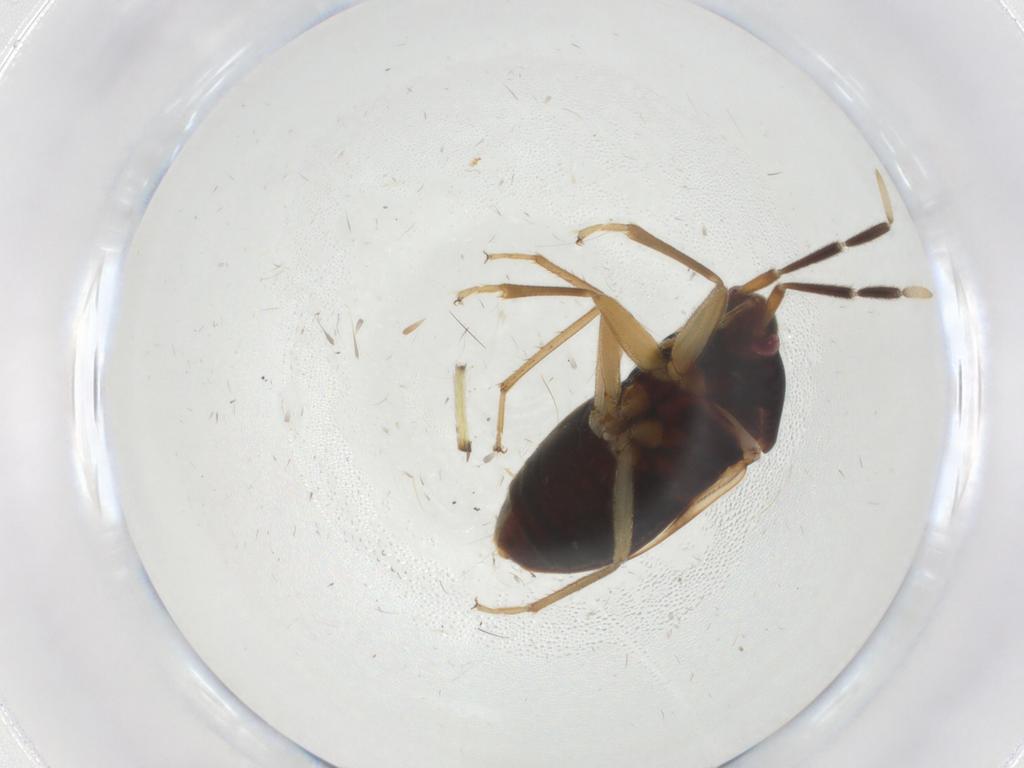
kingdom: Animalia
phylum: Arthropoda
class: Insecta
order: Hemiptera
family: Rhyparochromidae
